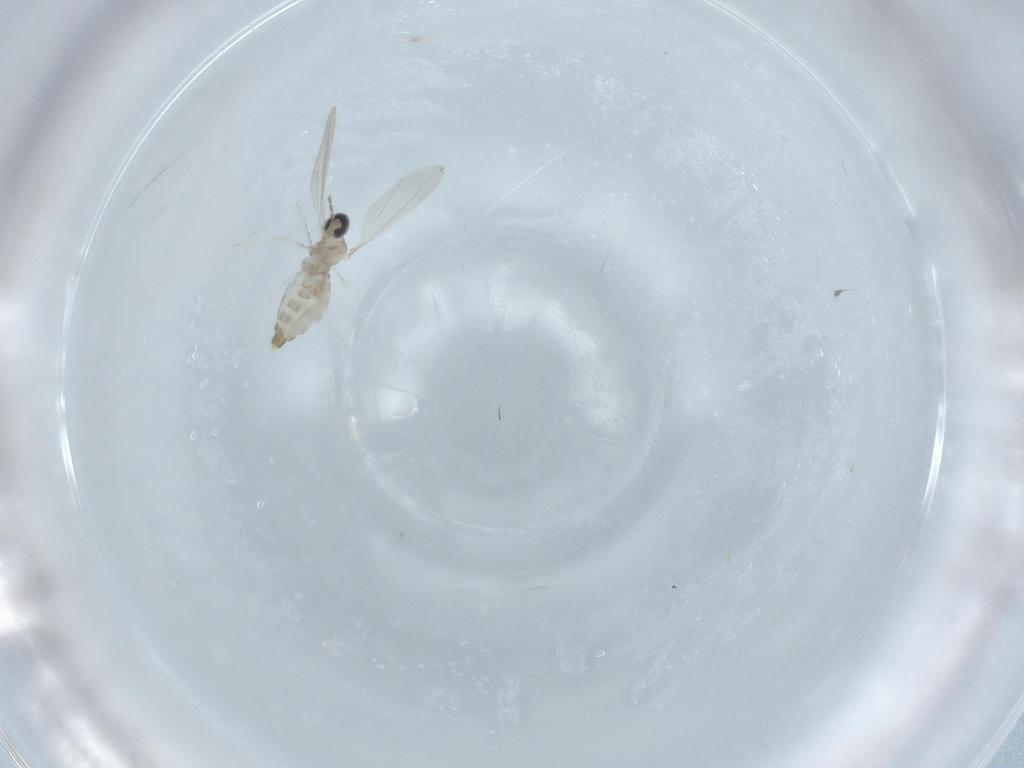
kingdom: Animalia
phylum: Arthropoda
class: Insecta
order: Diptera
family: Cecidomyiidae
